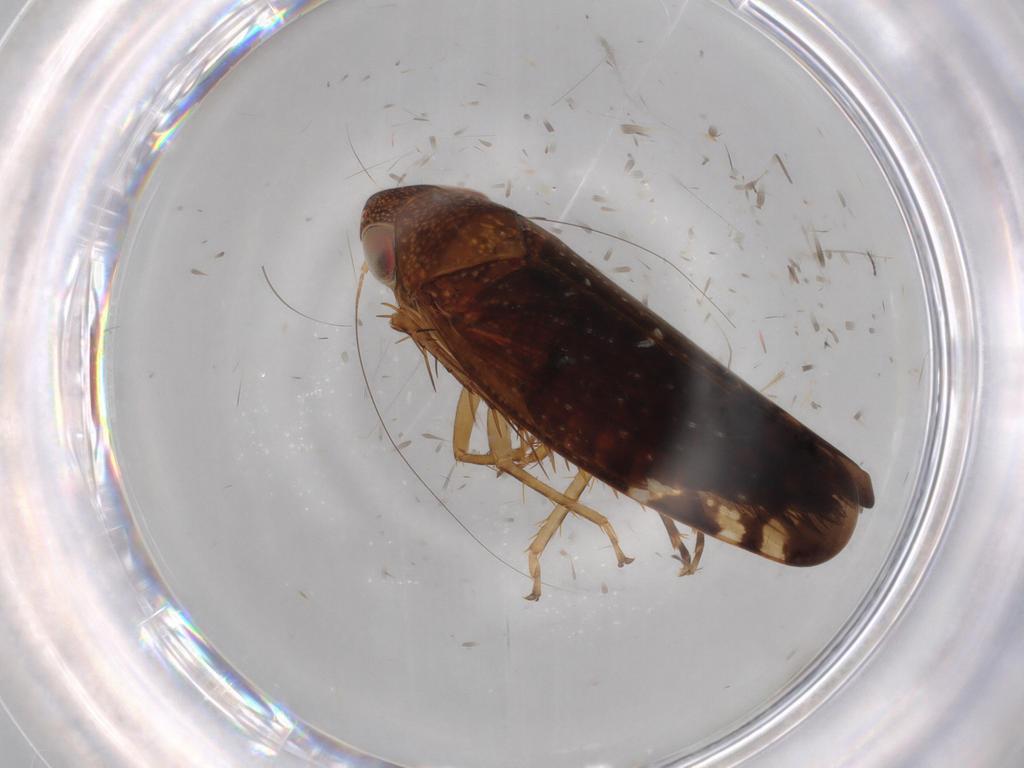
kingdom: Animalia
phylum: Arthropoda
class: Insecta
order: Hemiptera
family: Cicadellidae
